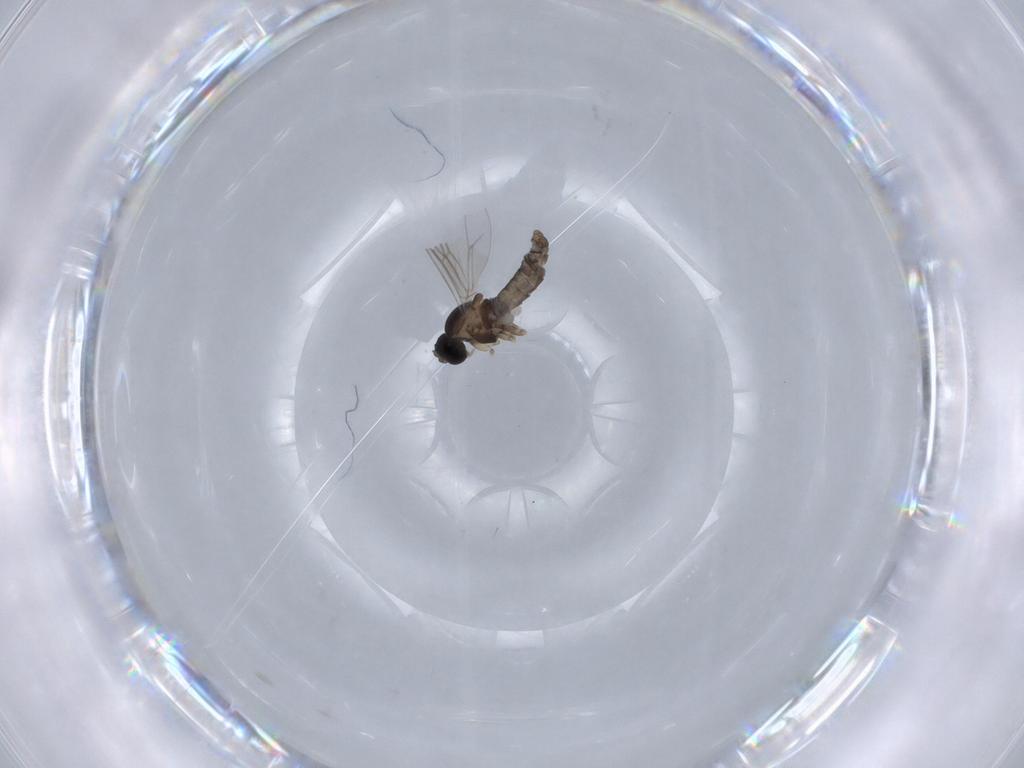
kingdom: Animalia
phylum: Arthropoda
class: Insecta
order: Diptera
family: Cecidomyiidae
